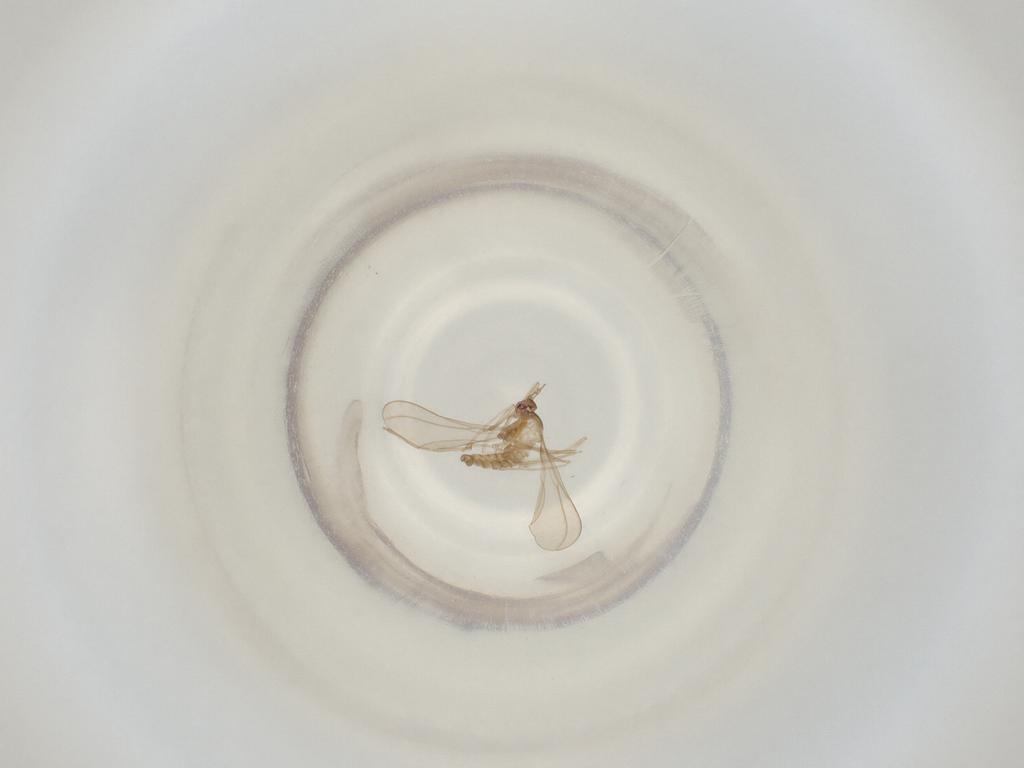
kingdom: Animalia
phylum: Arthropoda
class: Insecta
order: Diptera
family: Cecidomyiidae
